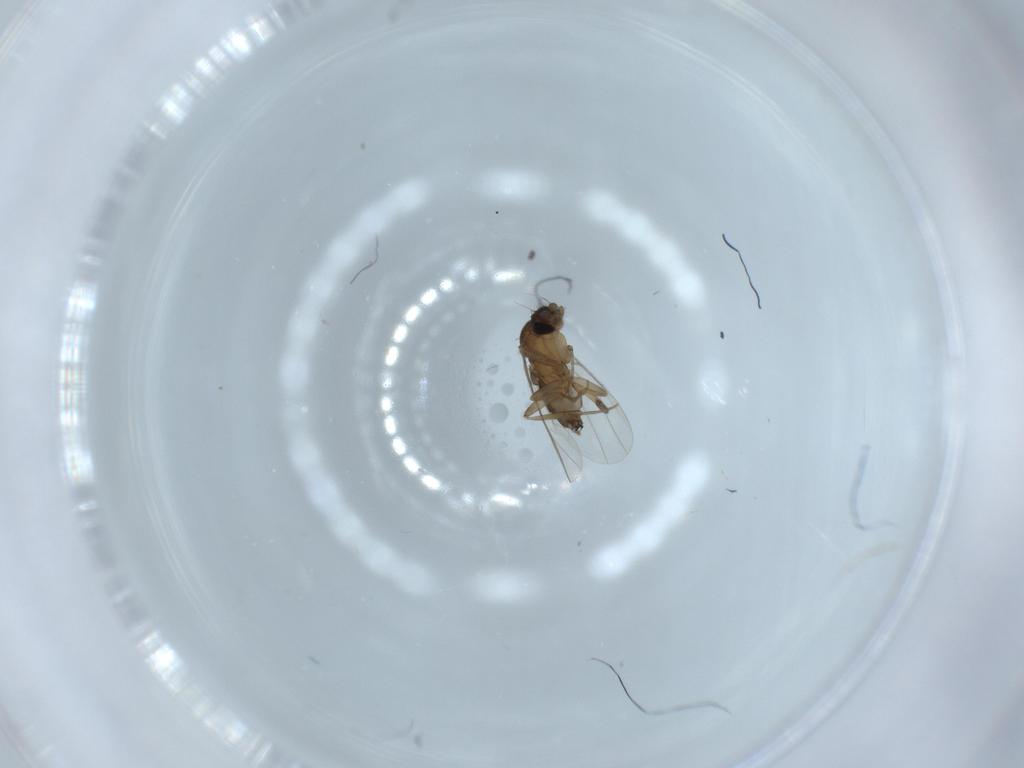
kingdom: Animalia
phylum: Arthropoda
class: Insecta
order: Diptera
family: Phoridae
